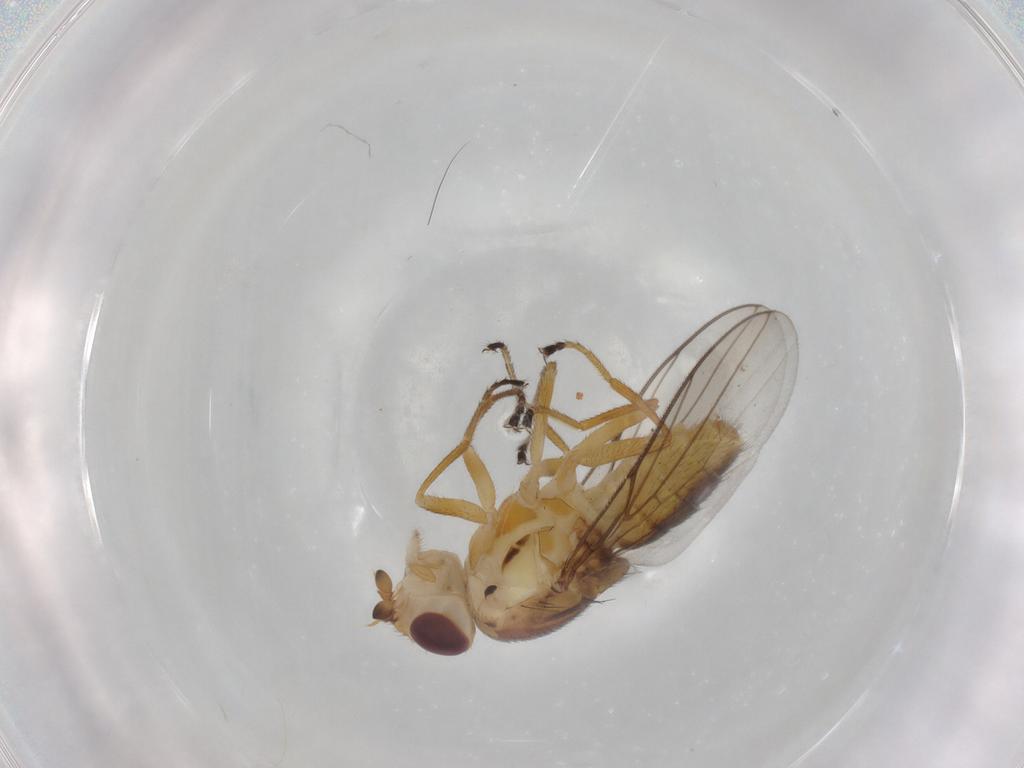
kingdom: Animalia
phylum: Arthropoda
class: Insecta
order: Diptera
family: Chloropidae
